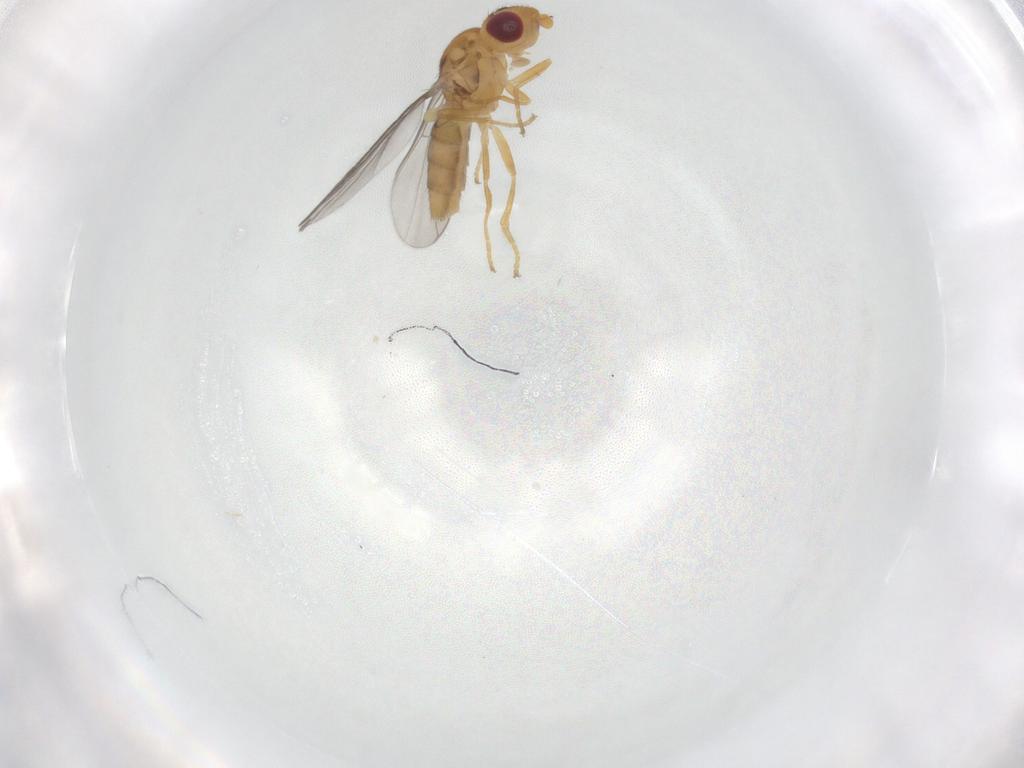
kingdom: Animalia
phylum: Arthropoda
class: Insecta
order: Diptera
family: Chloropidae
